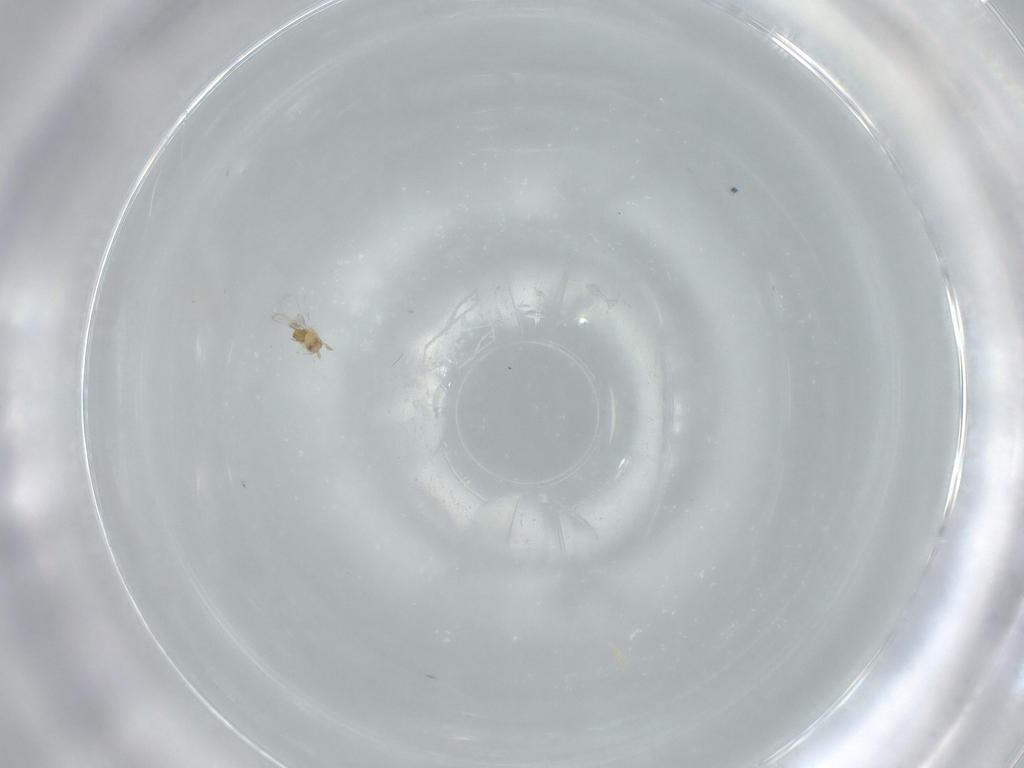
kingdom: Animalia
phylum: Arthropoda
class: Insecta
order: Hymenoptera
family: Trichogrammatidae
